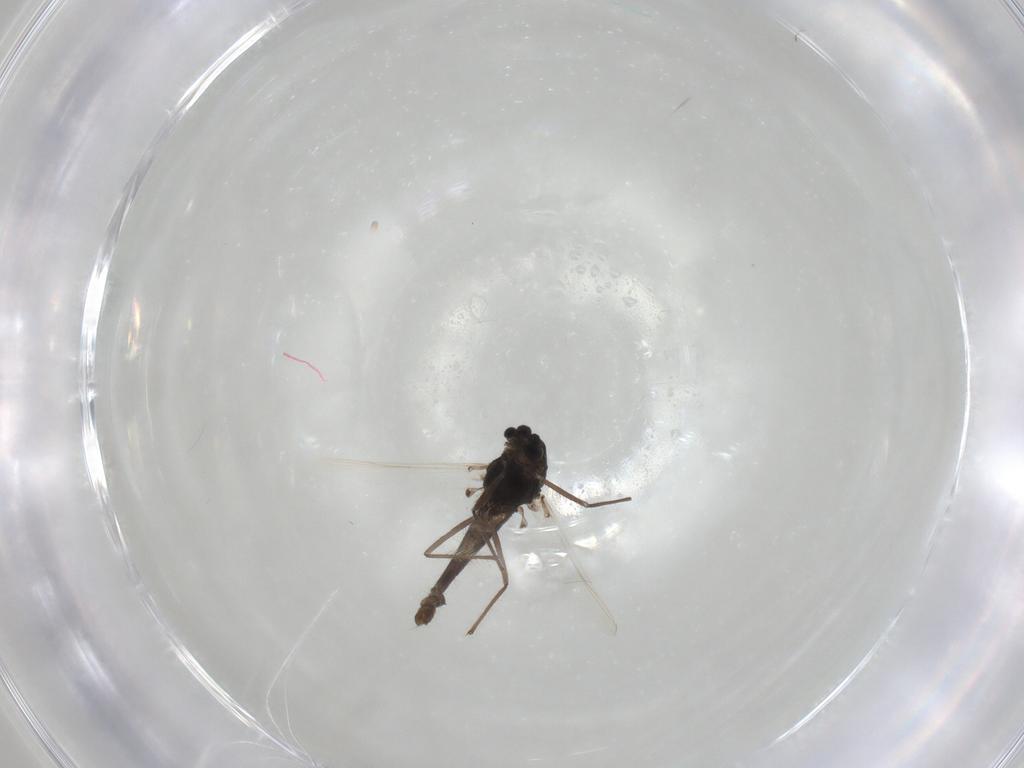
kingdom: Animalia
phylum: Arthropoda
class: Insecta
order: Diptera
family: Chironomidae
